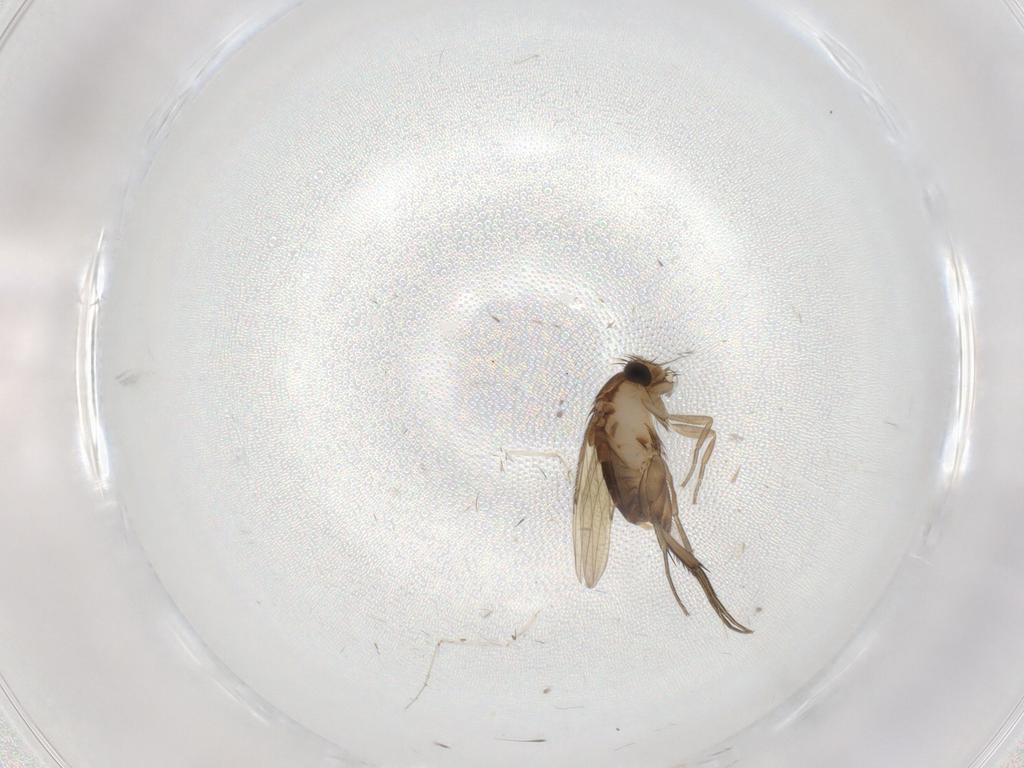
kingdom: Animalia
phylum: Arthropoda
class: Insecta
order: Diptera
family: Phoridae
